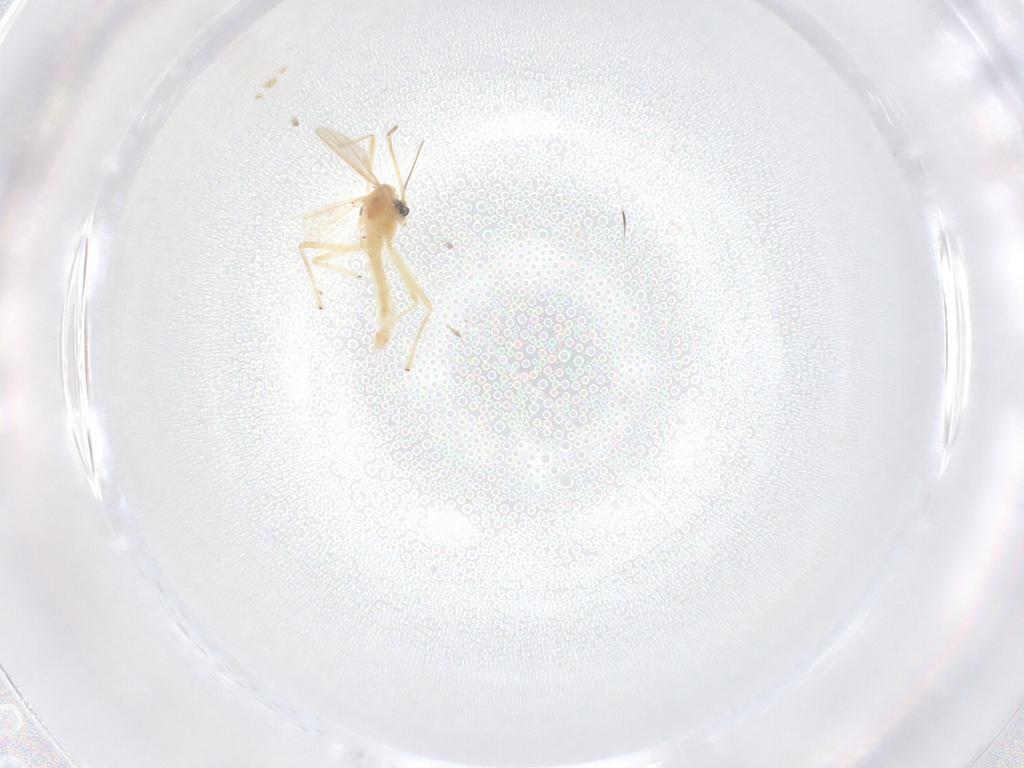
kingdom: Animalia
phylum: Arthropoda
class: Insecta
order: Diptera
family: Chironomidae
